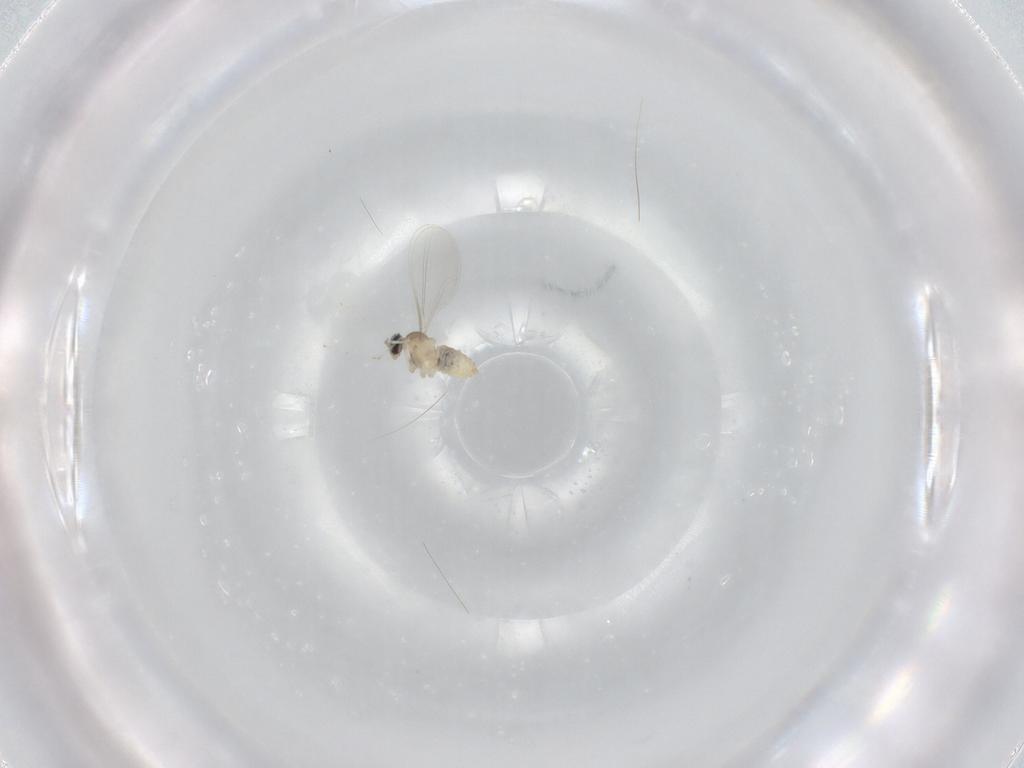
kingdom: Animalia
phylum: Arthropoda
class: Insecta
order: Diptera
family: Cecidomyiidae
